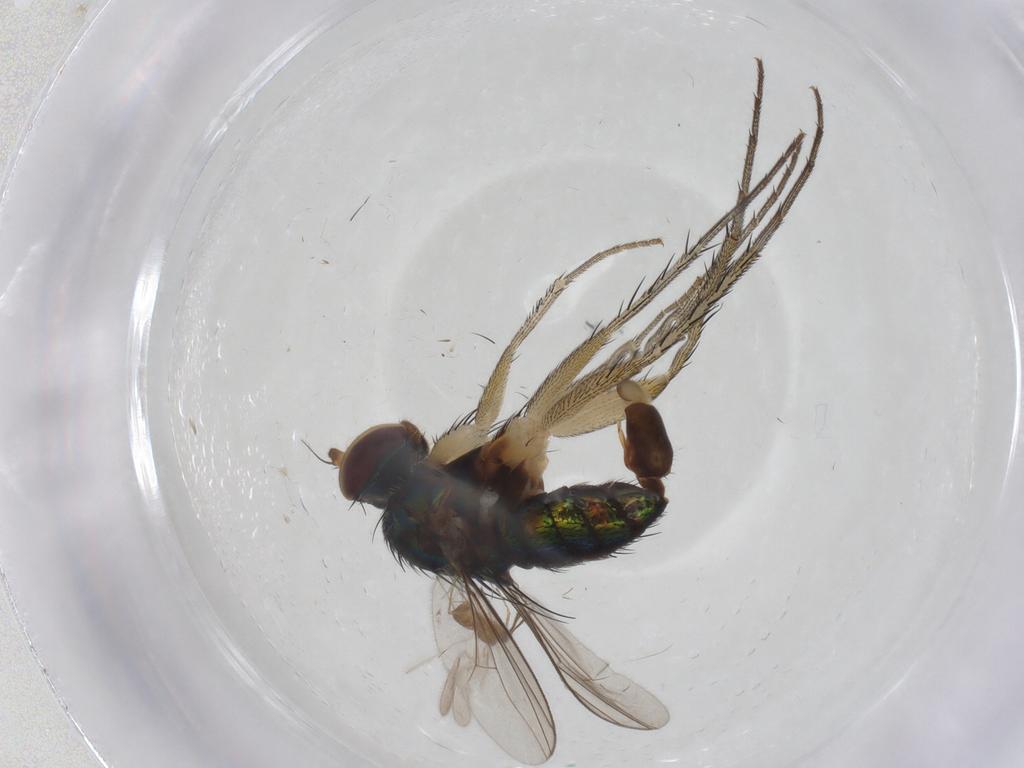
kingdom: Animalia
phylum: Arthropoda
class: Insecta
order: Diptera
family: Dolichopodidae
